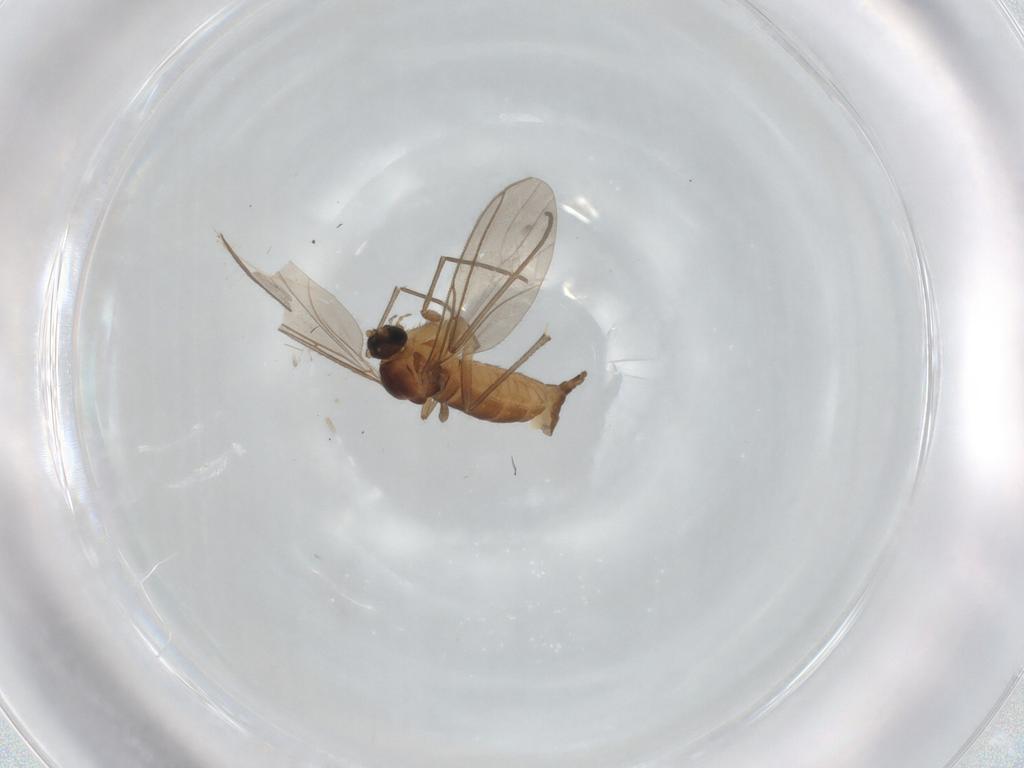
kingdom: Animalia
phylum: Arthropoda
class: Insecta
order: Diptera
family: Sciaridae
